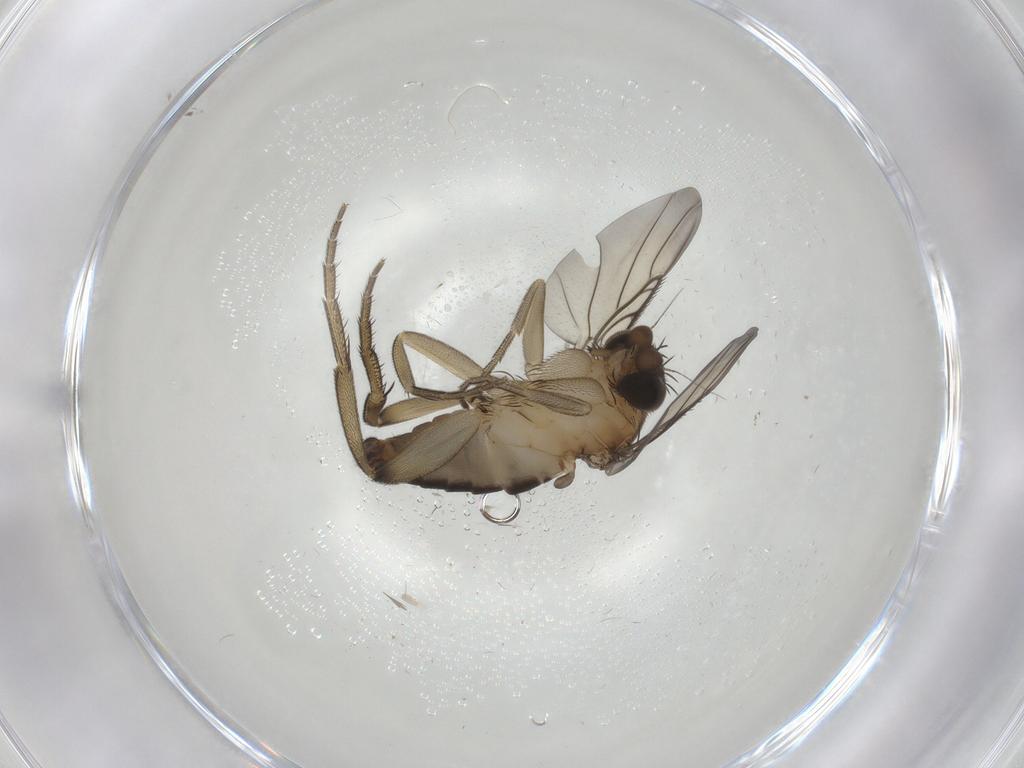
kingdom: Animalia
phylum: Arthropoda
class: Insecta
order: Diptera
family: Phoridae
